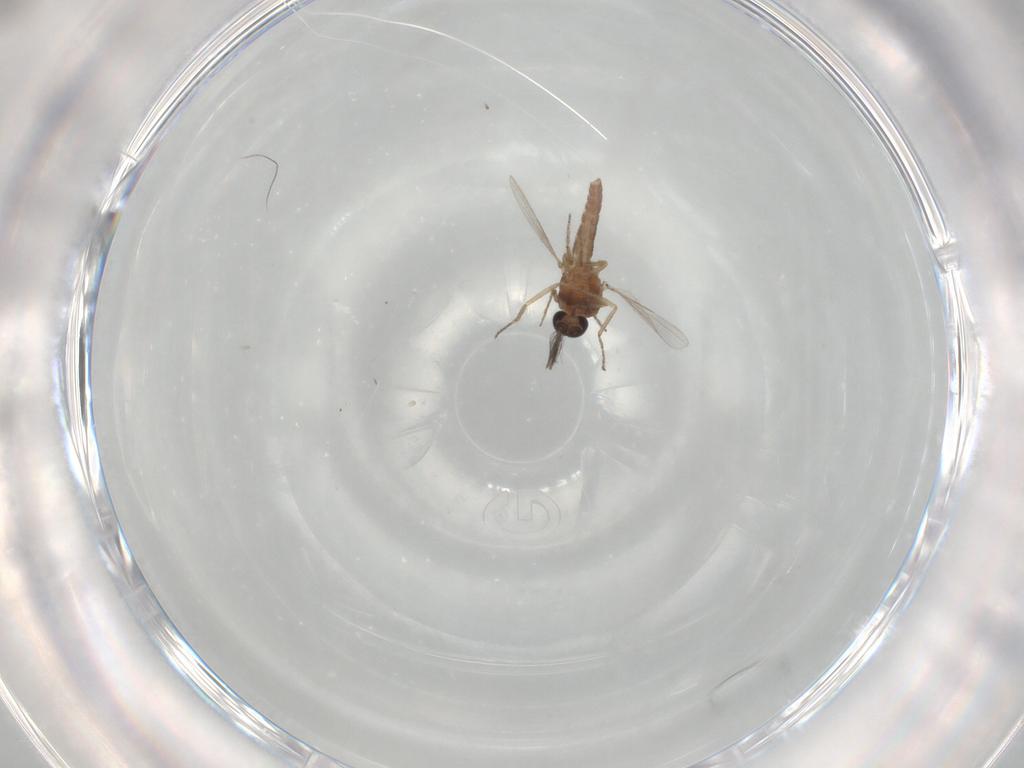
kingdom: Animalia
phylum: Arthropoda
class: Insecta
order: Diptera
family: Ceratopogonidae
